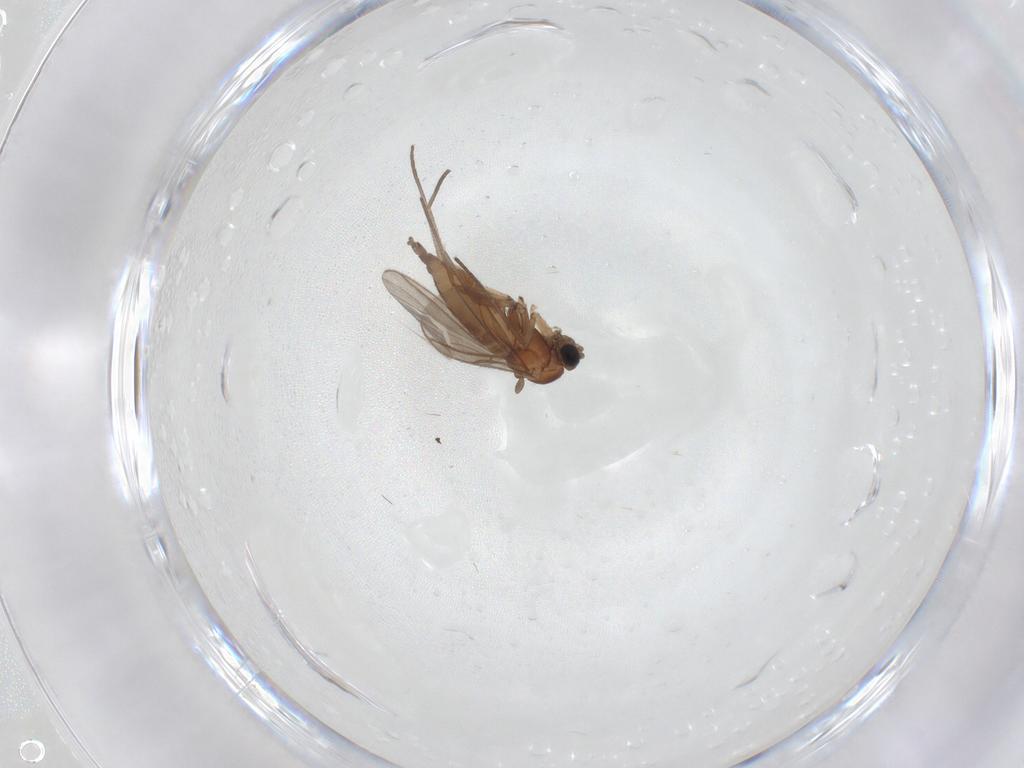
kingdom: Animalia
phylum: Arthropoda
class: Insecta
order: Diptera
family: Sciaridae
